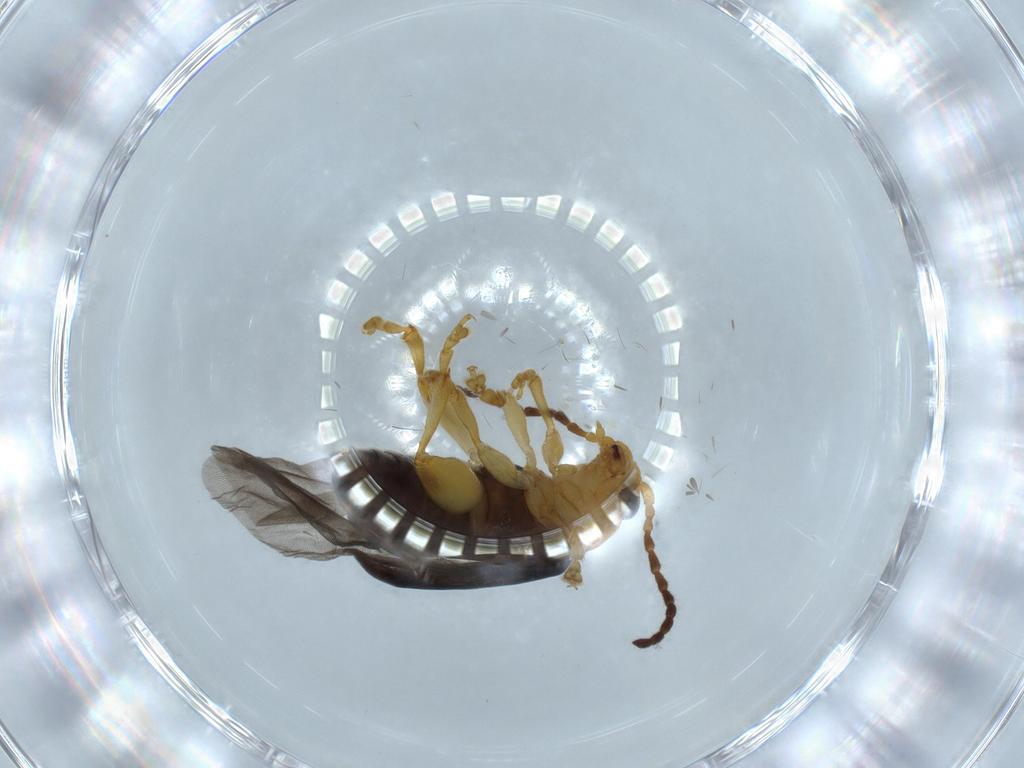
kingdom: Animalia
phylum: Arthropoda
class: Insecta
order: Coleoptera
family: Chrysomelidae
